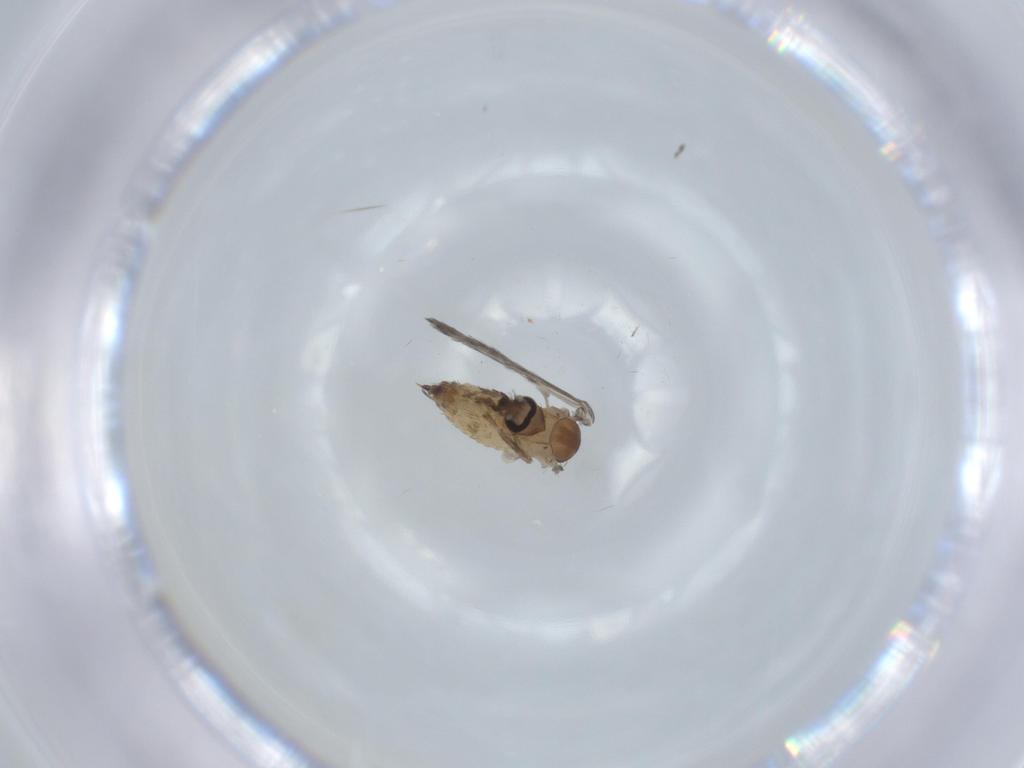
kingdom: Animalia
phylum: Arthropoda
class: Insecta
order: Diptera
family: Psychodidae
